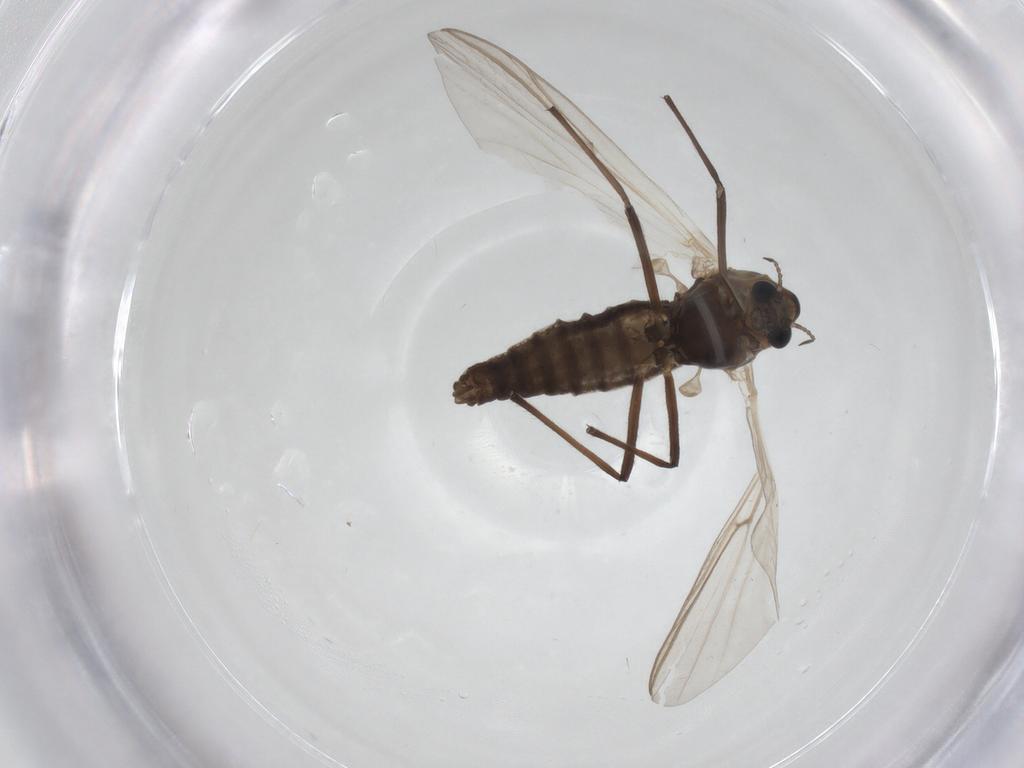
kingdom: Animalia
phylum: Arthropoda
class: Insecta
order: Diptera
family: Chironomidae
